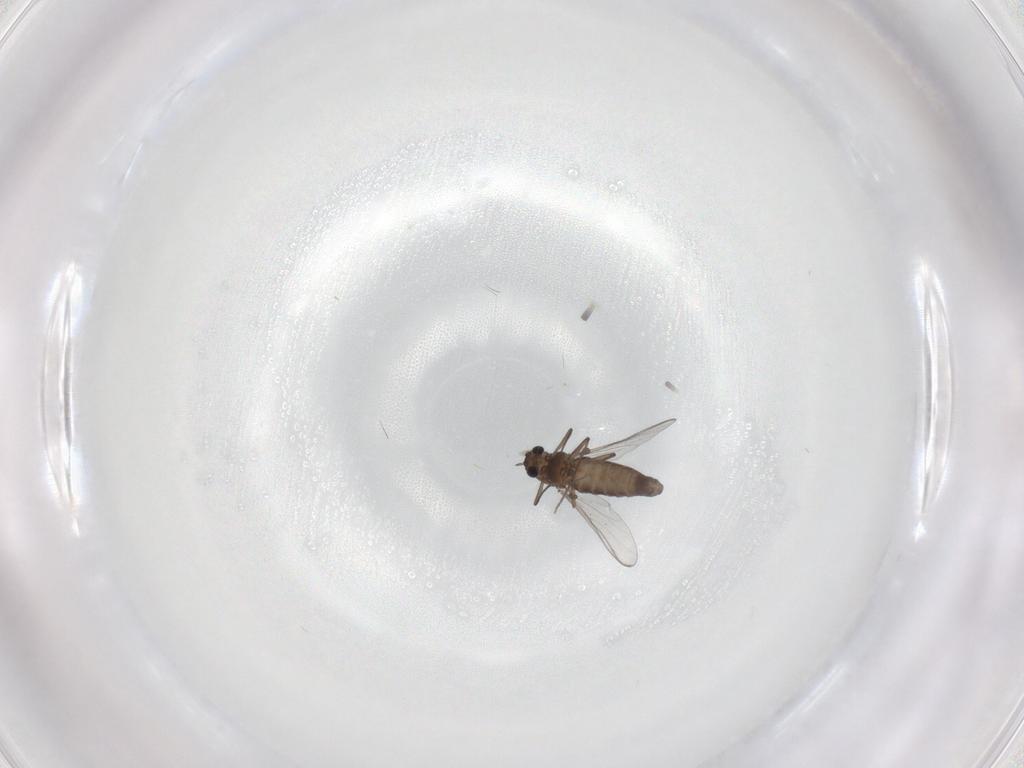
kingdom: Animalia
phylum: Arthropoda
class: Insecta
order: Diptera
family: Chironomidae
